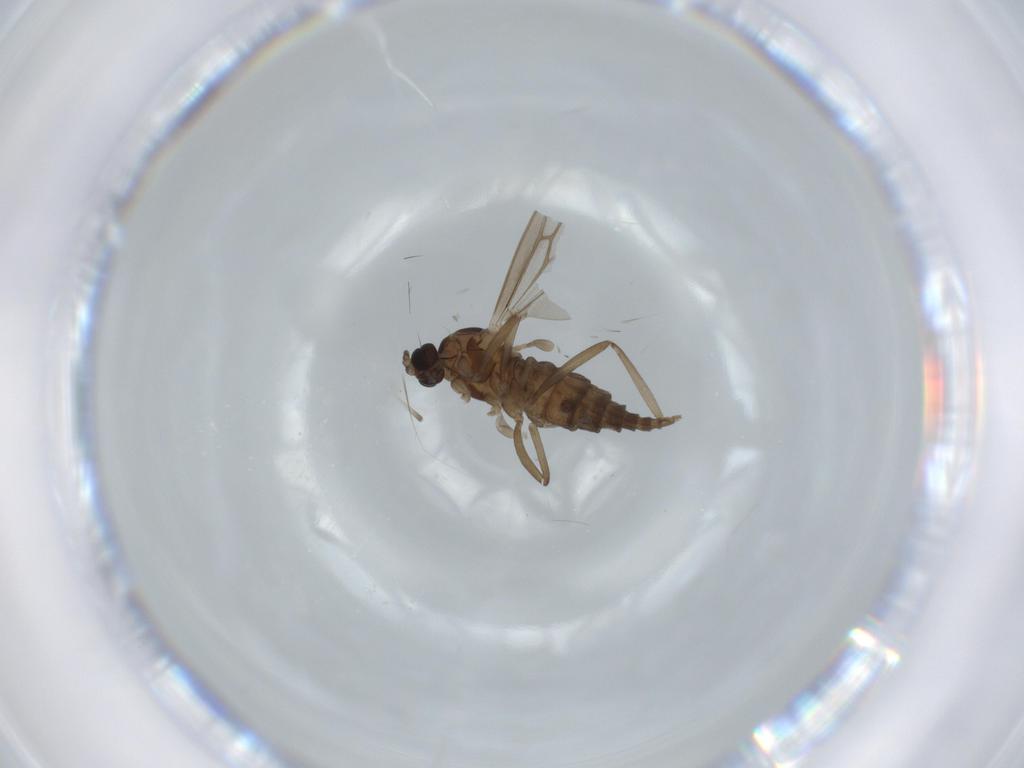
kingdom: Animalia
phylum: Arthropoda
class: Insecta
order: Diptera
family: Cecidomyiidae
